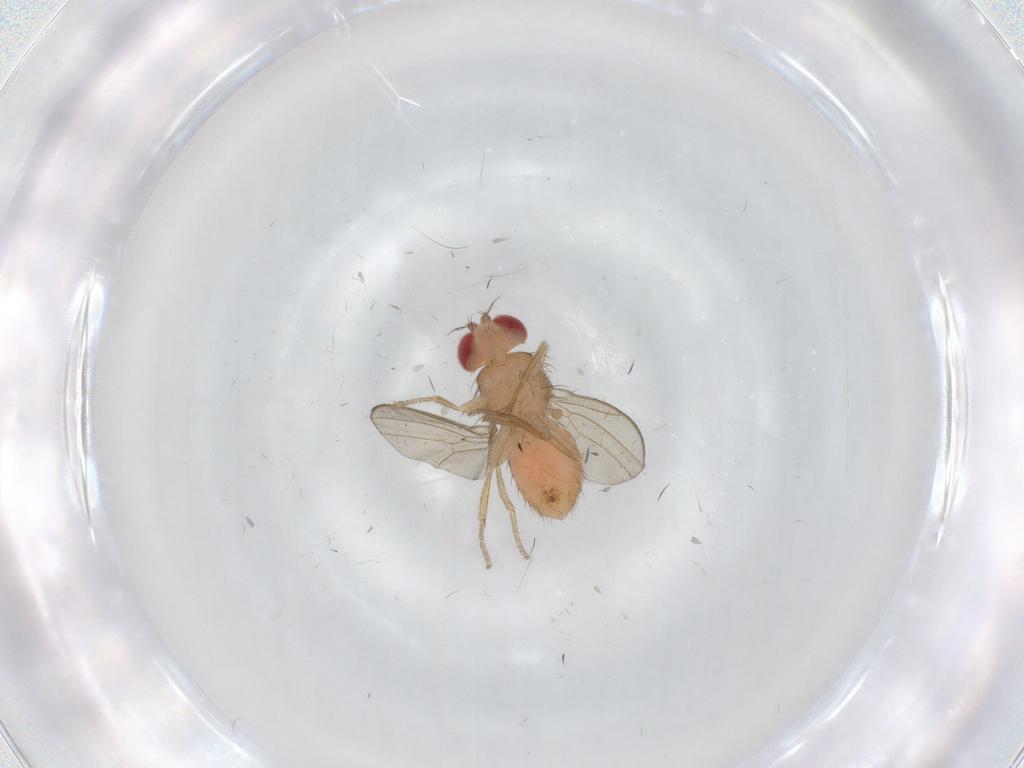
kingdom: Animalia
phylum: Arthropoda
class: Insecta
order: Diptera
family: Drosophilidae
